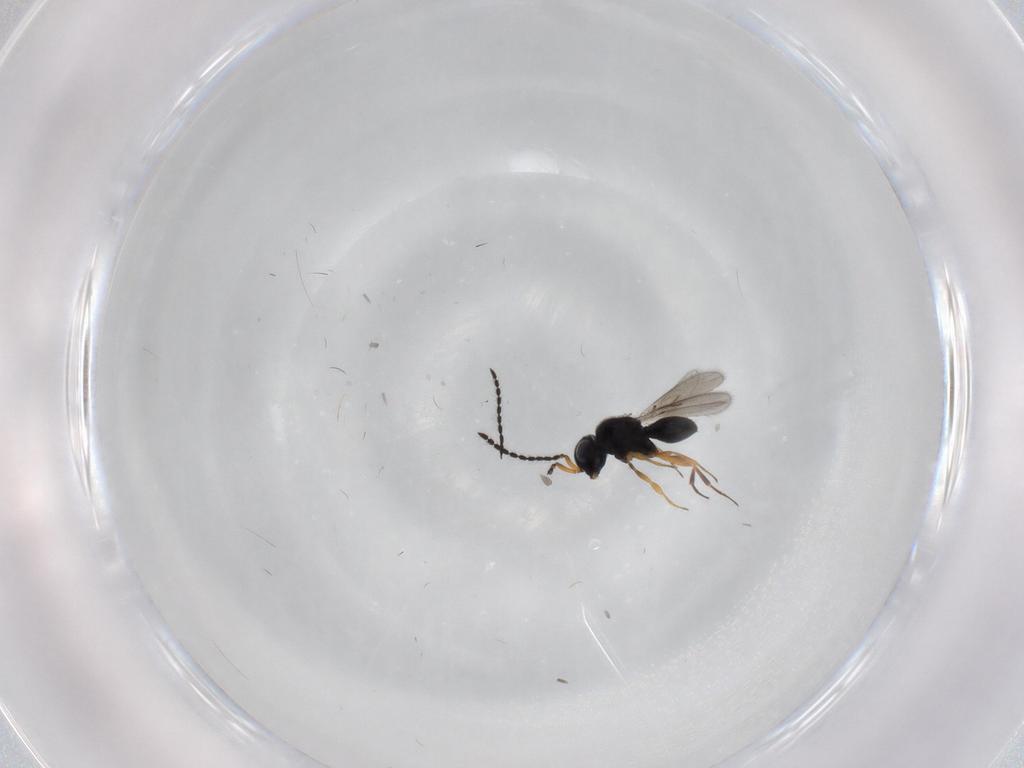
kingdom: Animalia
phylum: Arthropoda
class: Insecta
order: Hymenoptera
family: Scelionidae
